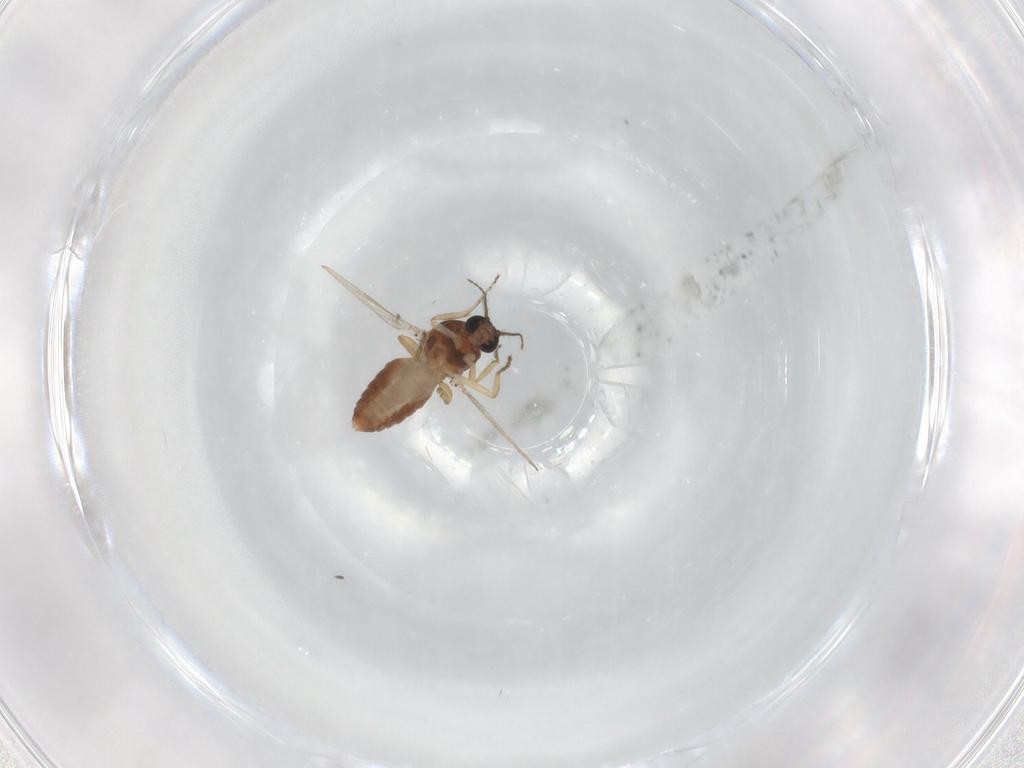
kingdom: Animalia
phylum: Arthropoda
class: Insecta
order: Diptera
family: Ceratopogonidae
